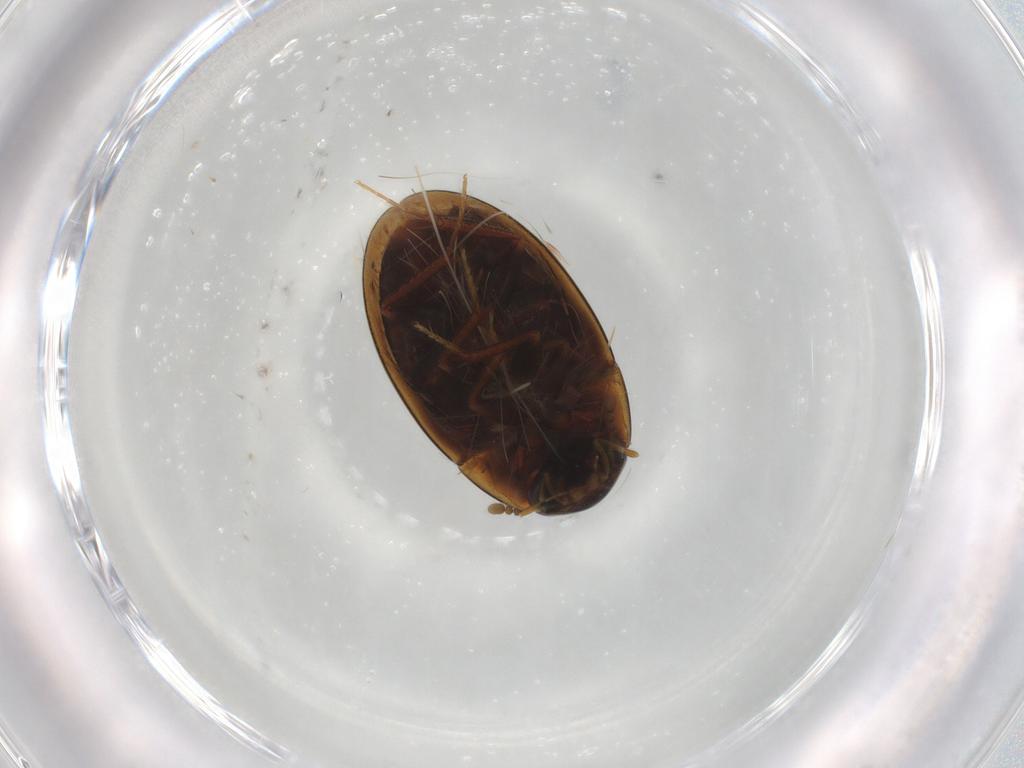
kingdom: Animalia
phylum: Arthropoda
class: Insecta
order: Coleoptera
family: Hydrophilidae
